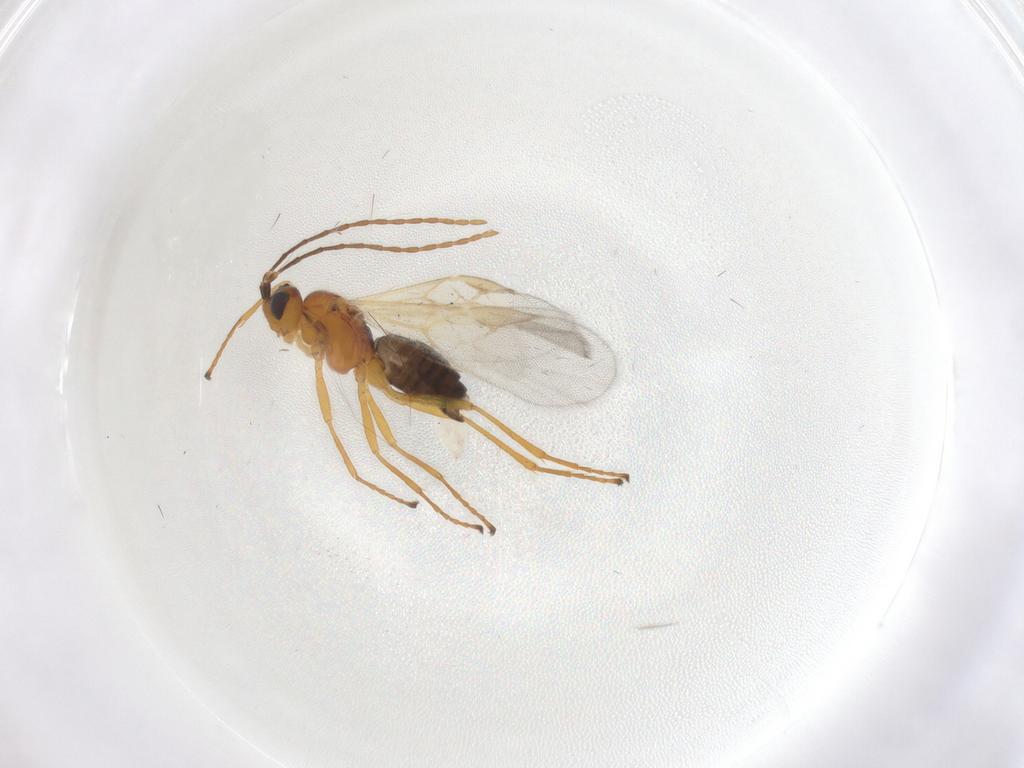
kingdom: Animalia
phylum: Arthropoda
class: Insecta
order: Hymenoptera
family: Braconidae
